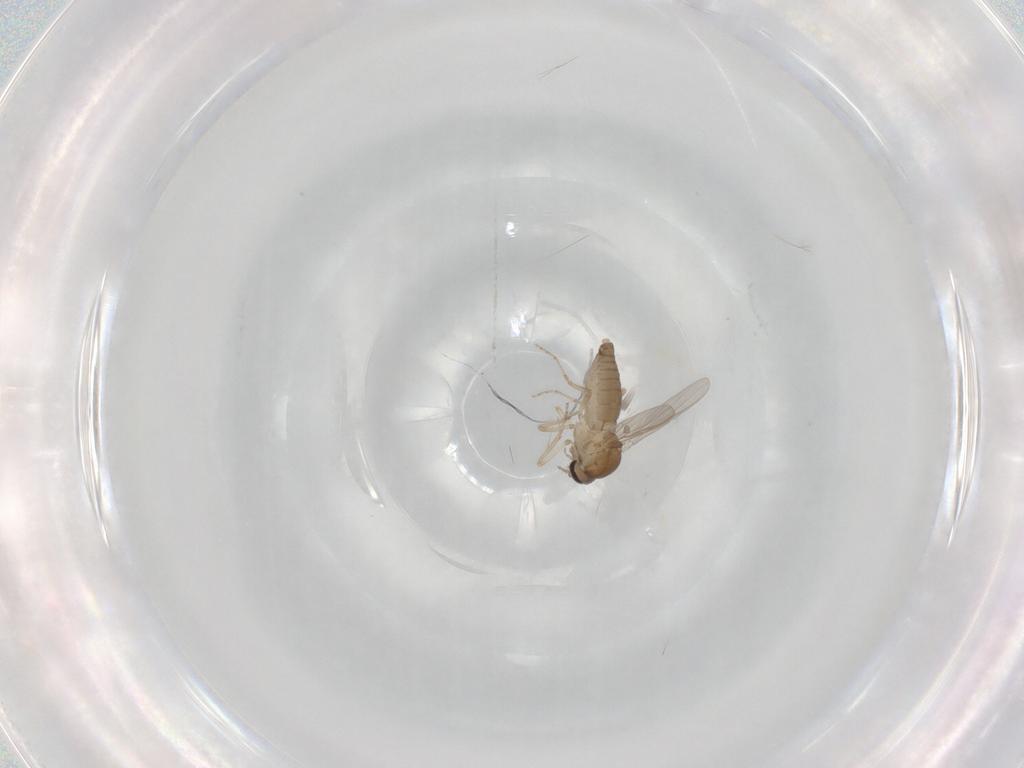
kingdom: Animalia
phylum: Arthropoda
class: Insecta
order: Diptera
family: Ceratopogonidae
